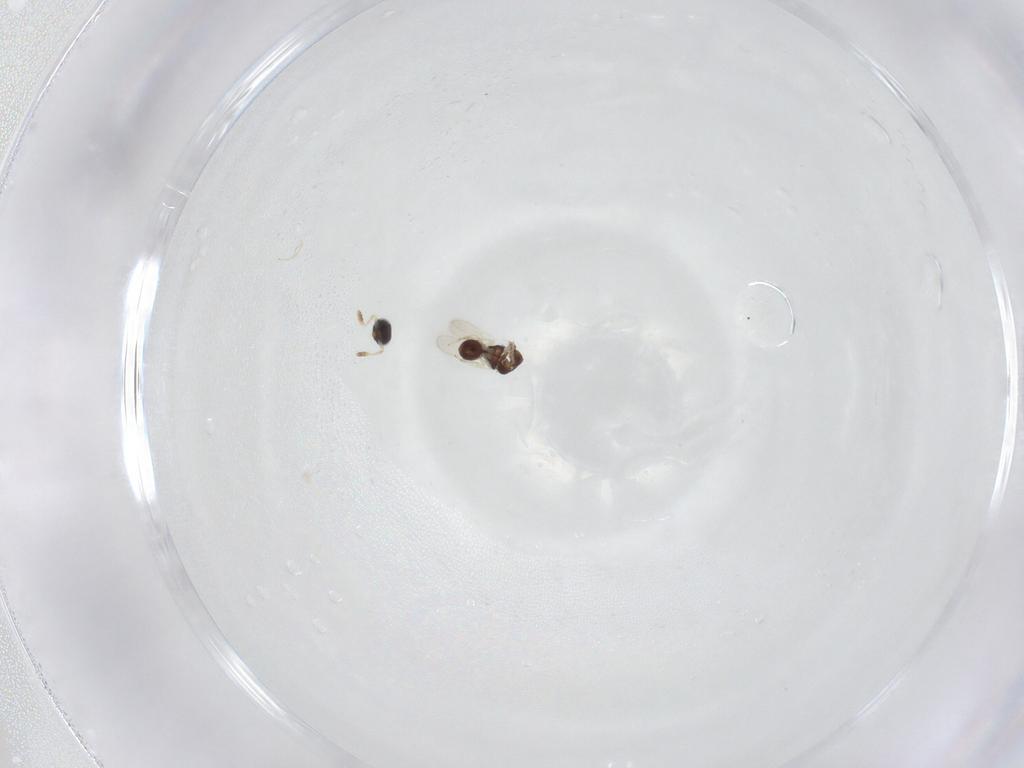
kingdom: Animalia
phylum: Arthropoda
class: Insecta
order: Hymenoptera
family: Scelionidae
